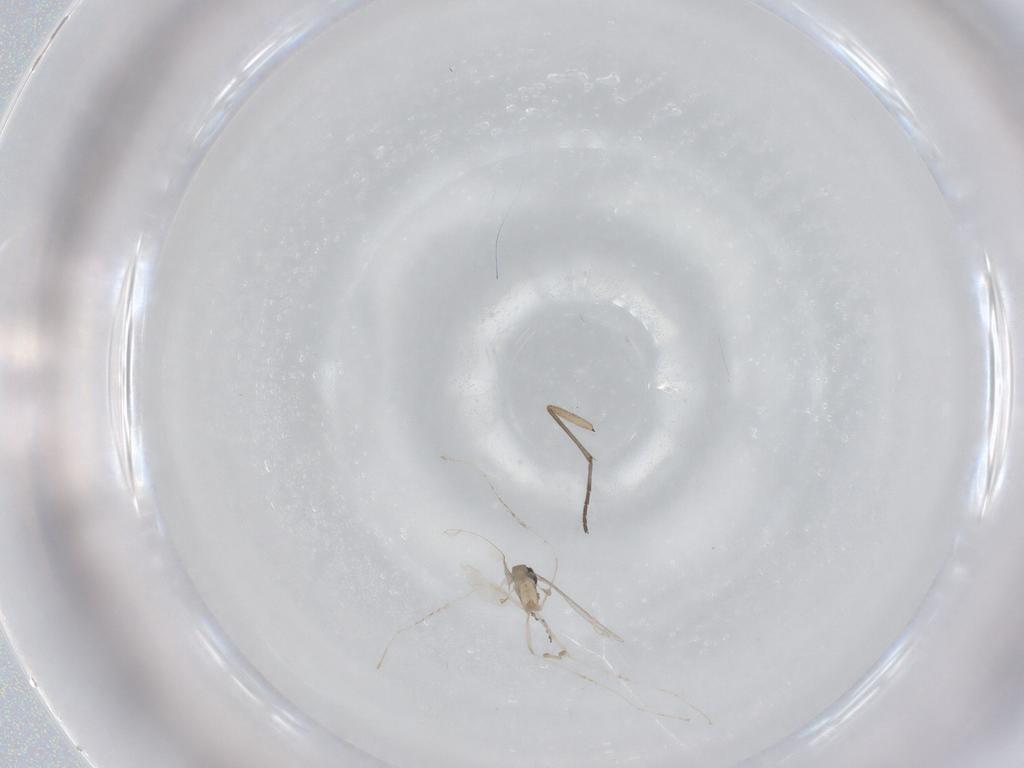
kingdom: Animalia
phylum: Arthropoda
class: Insecta
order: Diptera
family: Cecidomyiidae
